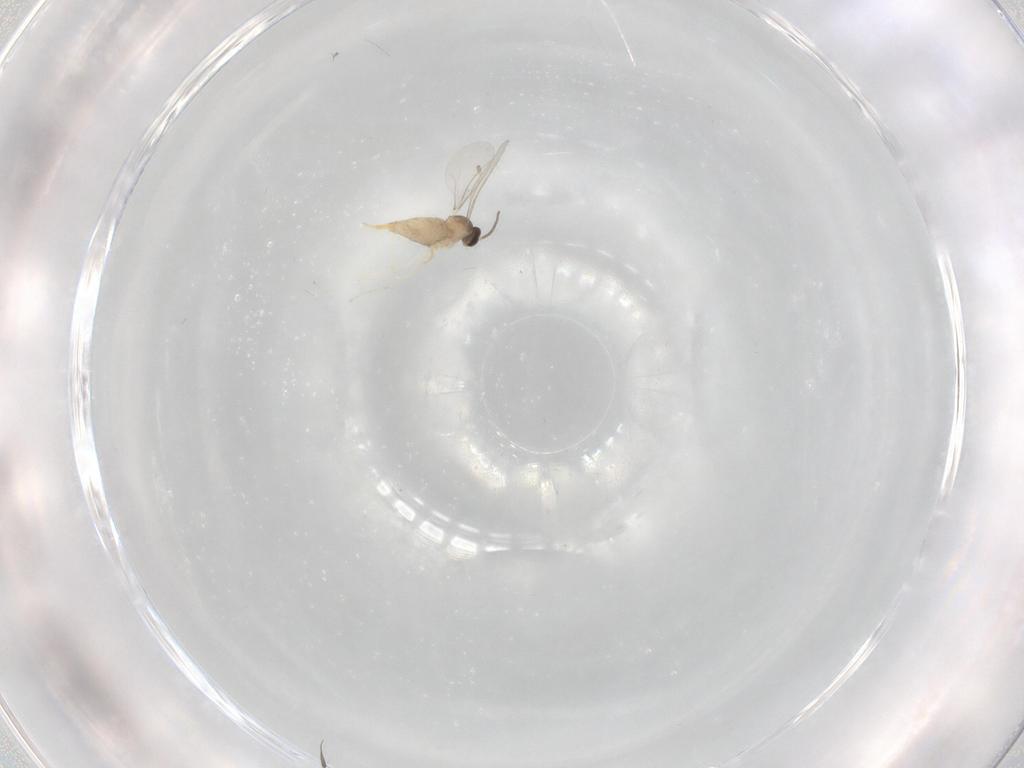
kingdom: Animalia
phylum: Arthropoda
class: Insecta
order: Diptera
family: Cecidomyiidae
